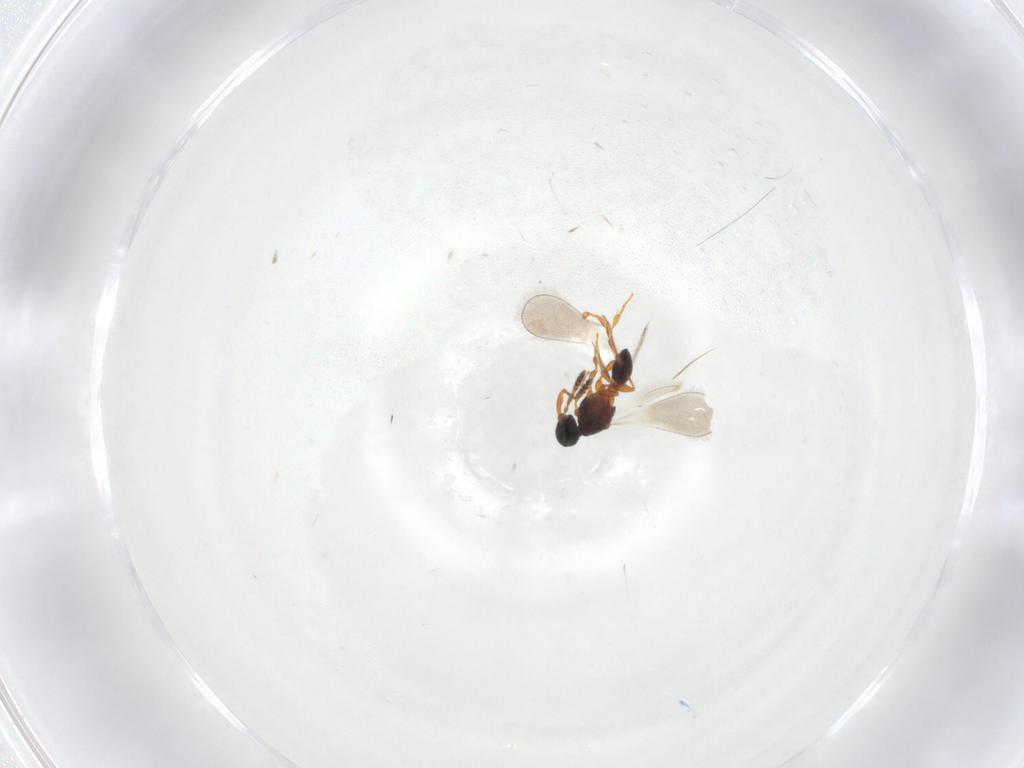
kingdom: Animalia
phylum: Arthropoda
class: Insecta
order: Hymenoptera
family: Platygastridae
